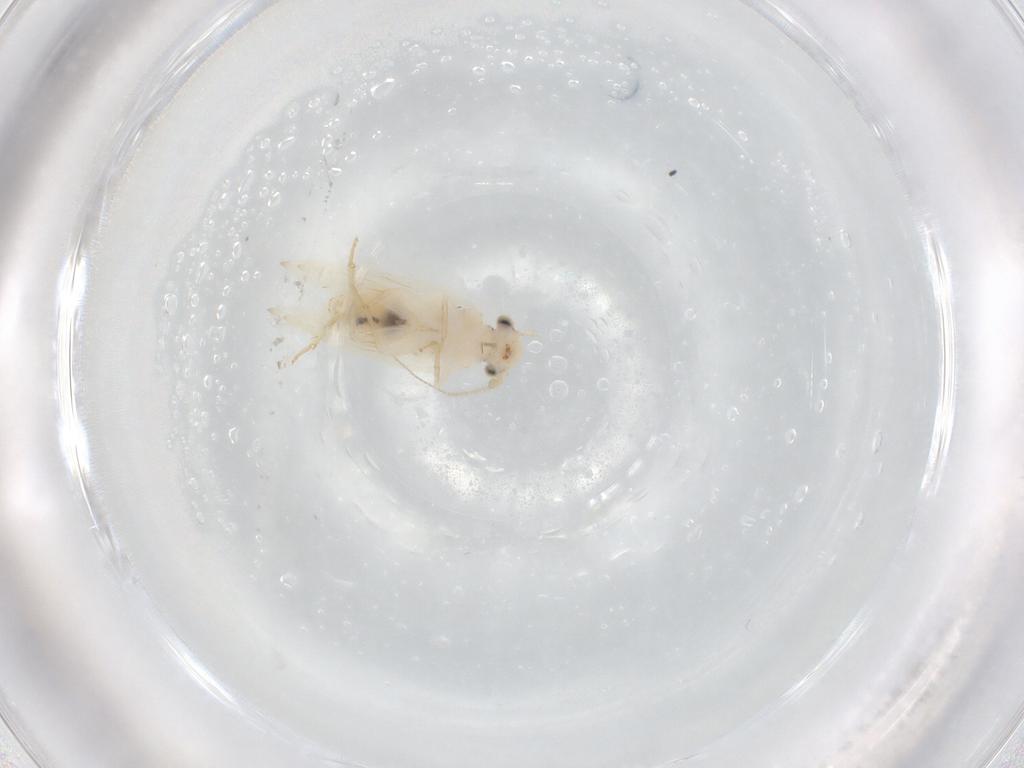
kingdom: Animalia
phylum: Arthropoda
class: Insecta
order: Psocodea
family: Lepidopsocidae
